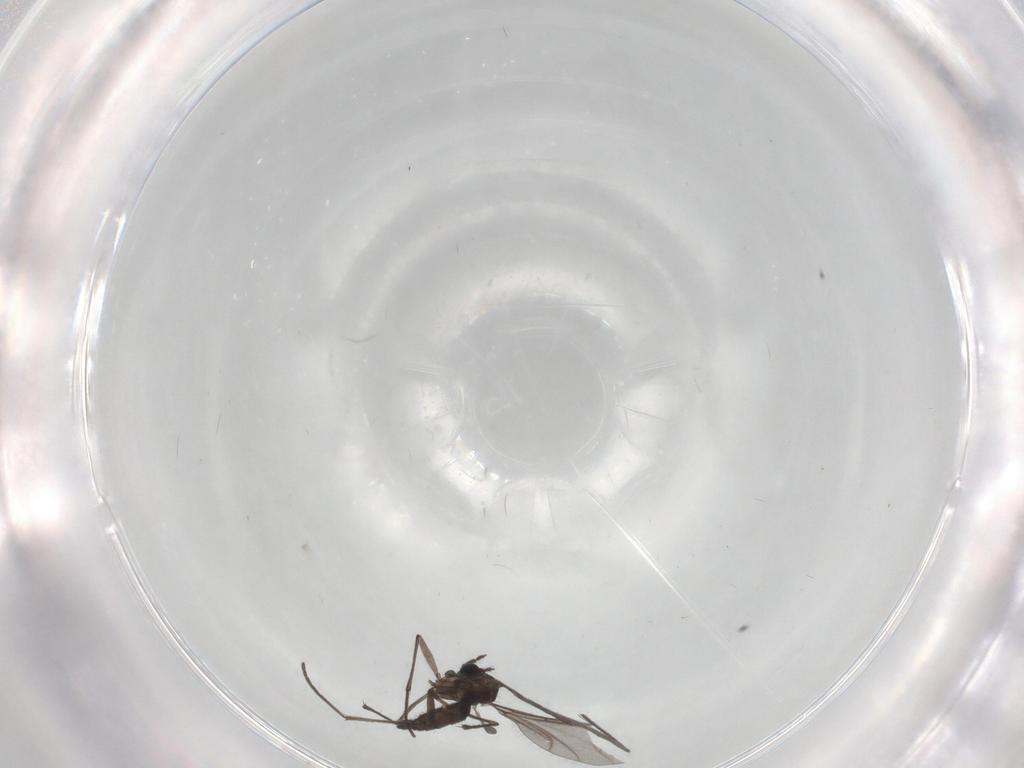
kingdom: Animalia
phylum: Arthropoda
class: Insecta
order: Diptera
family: Sciaridae
